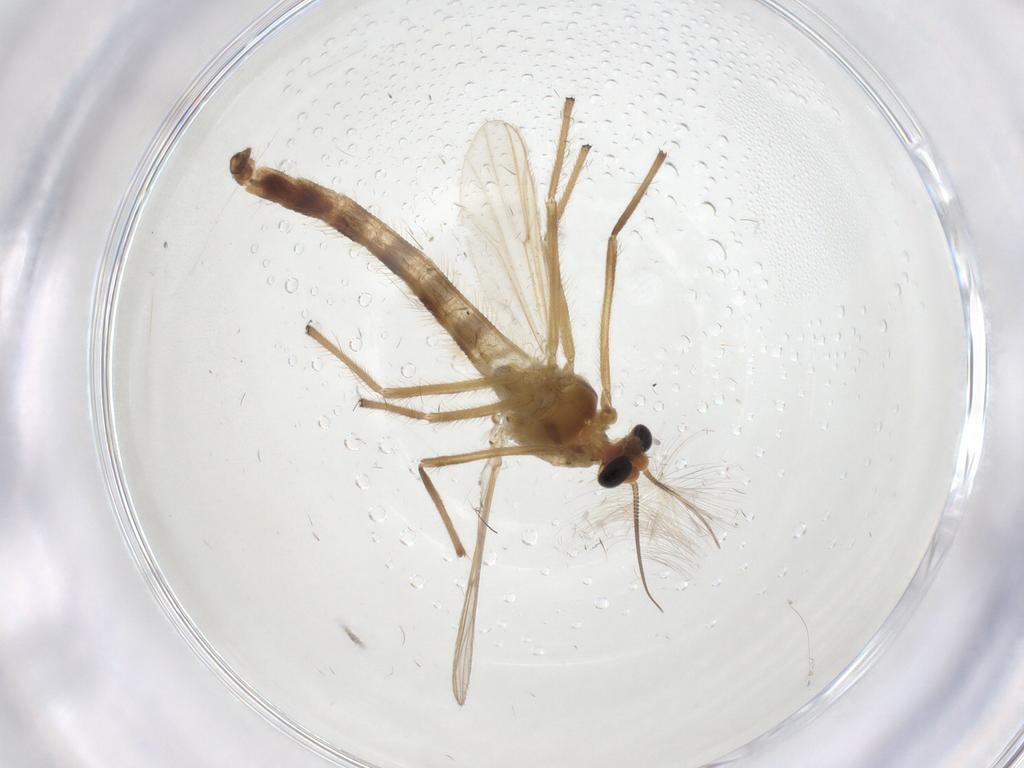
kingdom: Animalia
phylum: Arthropoda
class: Insecta
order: Diptera
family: Chironomidae
